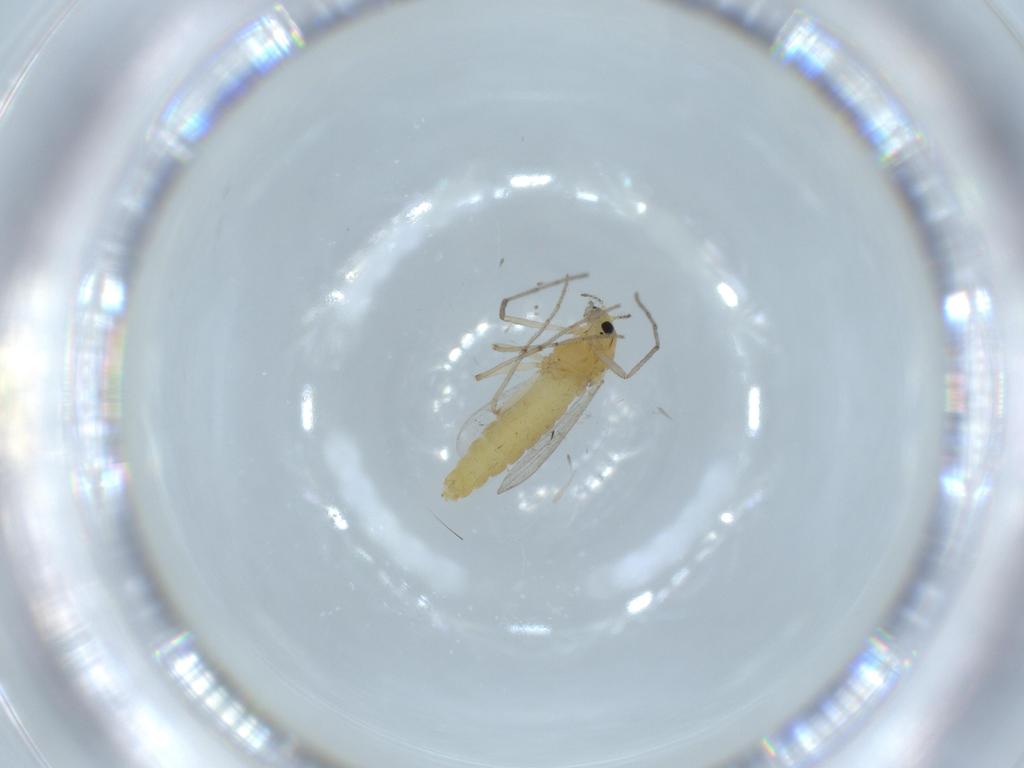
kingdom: Animalia
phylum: Arthropoda
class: Insecta
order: Diptera
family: Chironomidae
